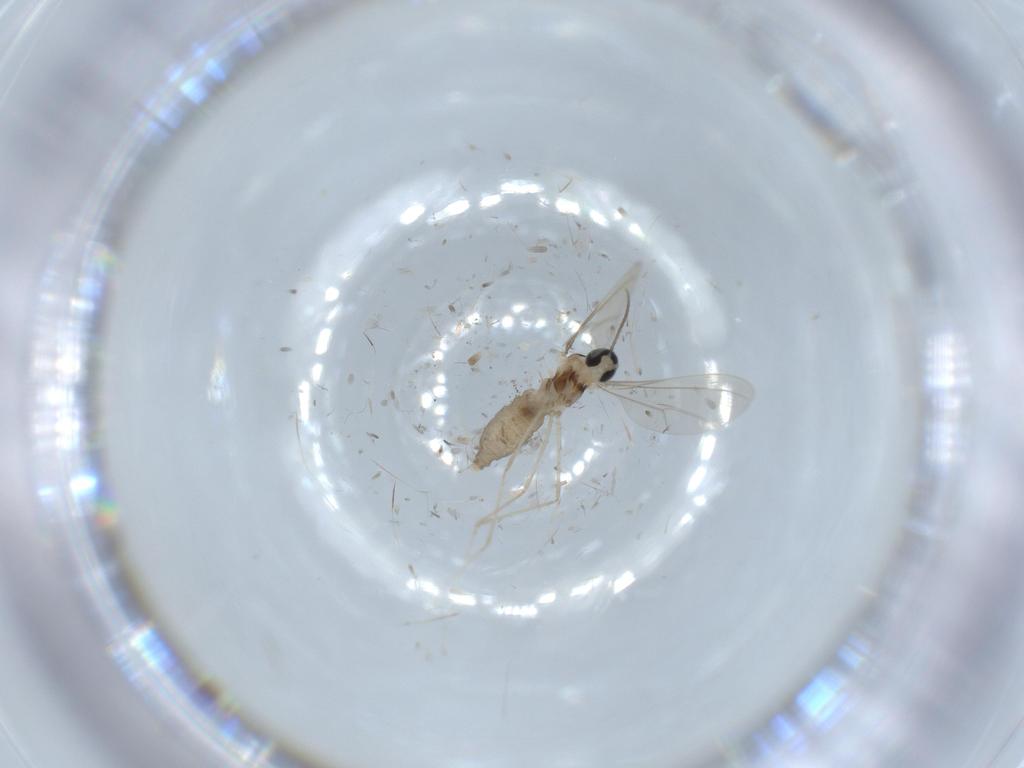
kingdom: Animalia
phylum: Arthropoda
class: Insecta
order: Diptera
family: Cecidomyiidae
